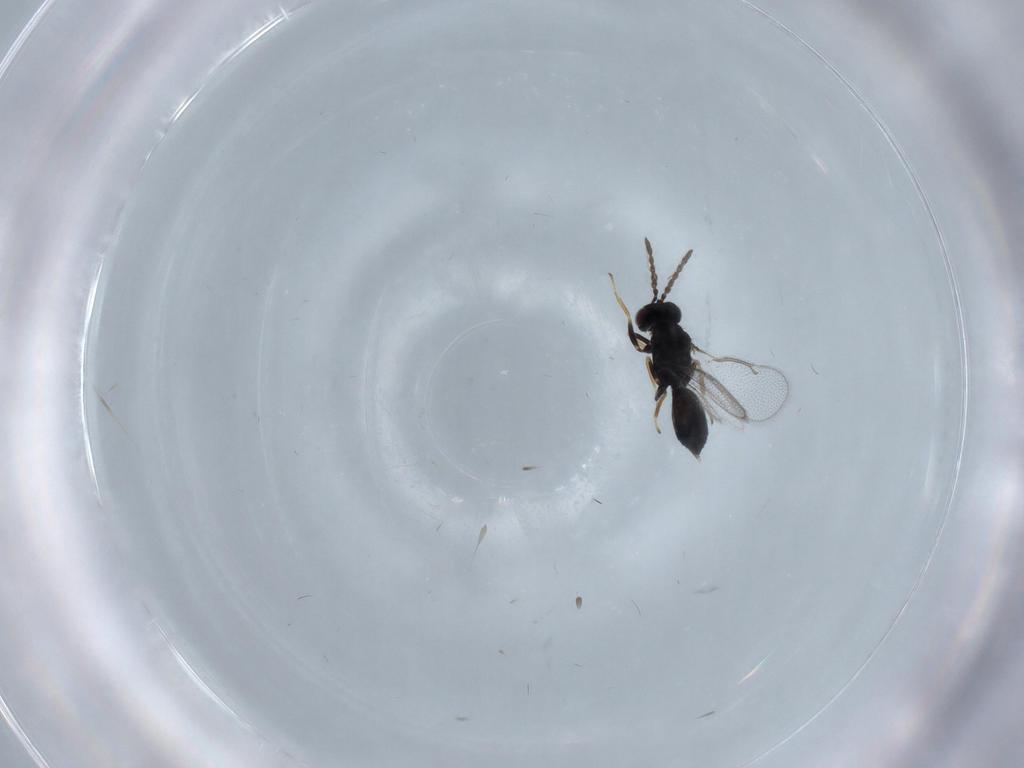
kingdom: Animalia
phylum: Arthropoda
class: Insecta
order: Hymenoptera
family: Eulophidae
